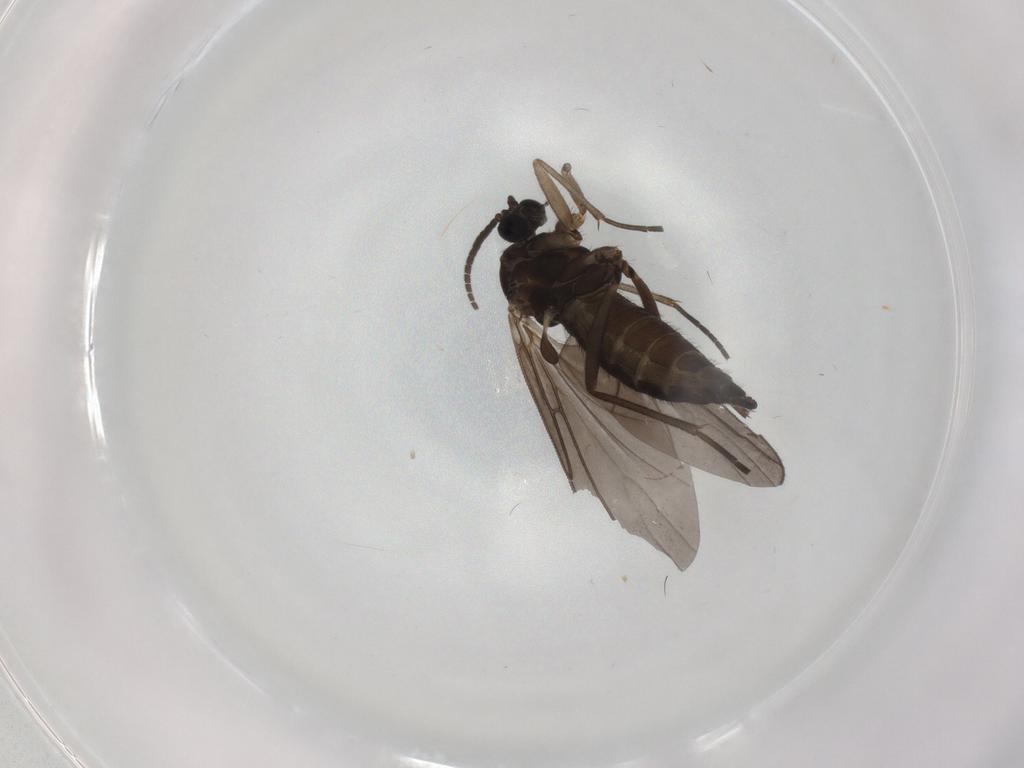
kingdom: Animalia
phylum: Arthropoda
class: Insecta
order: Diptera
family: Sciaridae
